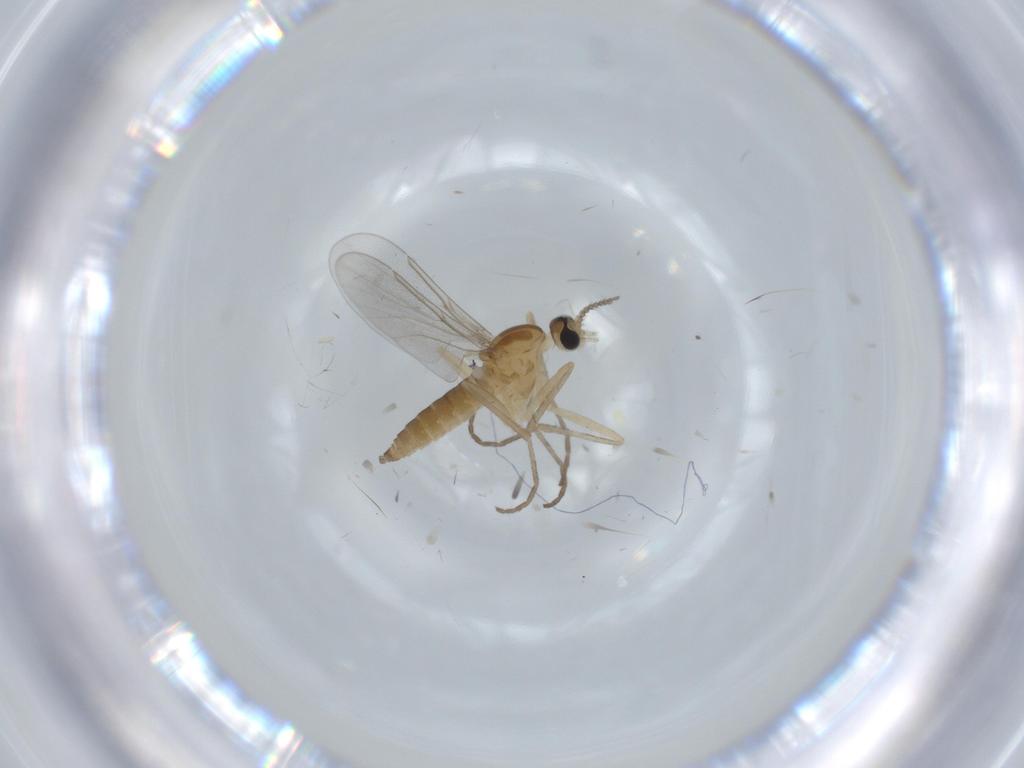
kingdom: Animalia
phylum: Arthropoda
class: Insecta
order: Diptera
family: Cecidomyiidae
